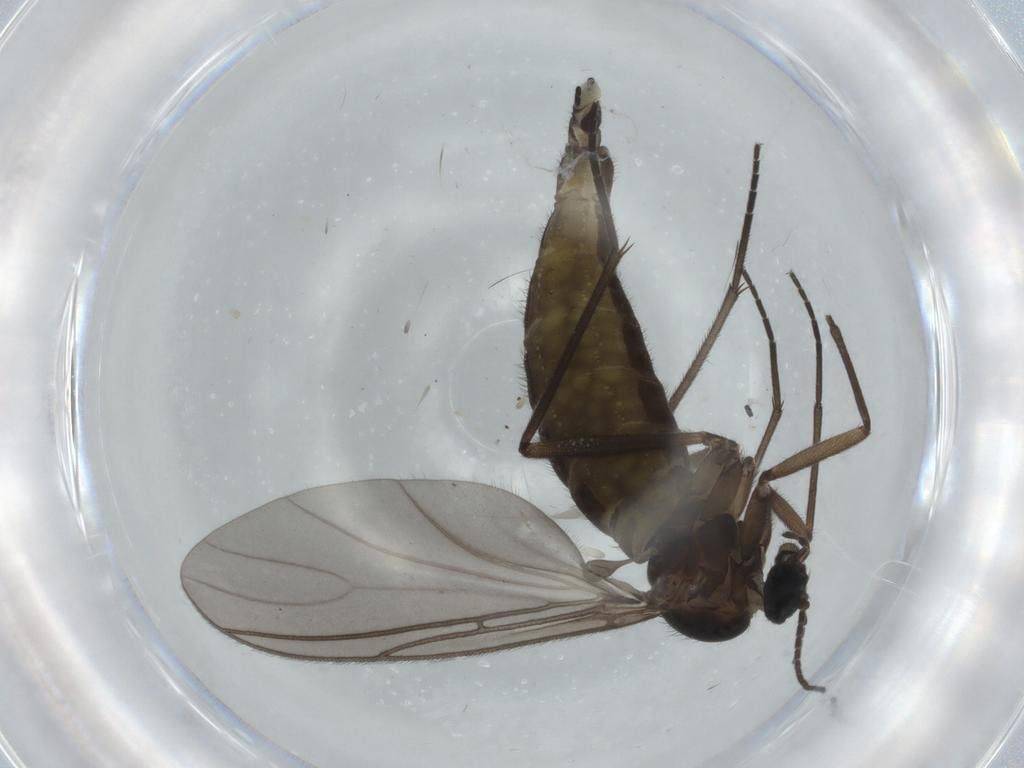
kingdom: Animalia
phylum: Arthropoda
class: Insecta
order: Diptera
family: Sciaridae
